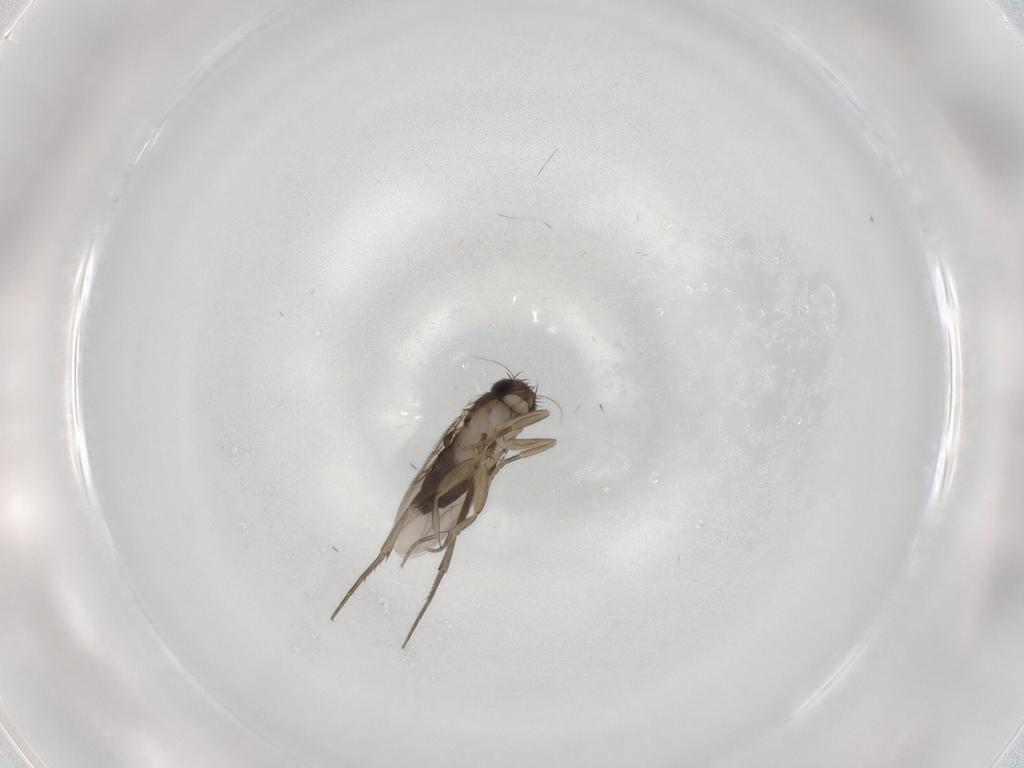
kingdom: Animalia
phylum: Arthropoda
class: Insecta
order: Diptera
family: Phoridae
